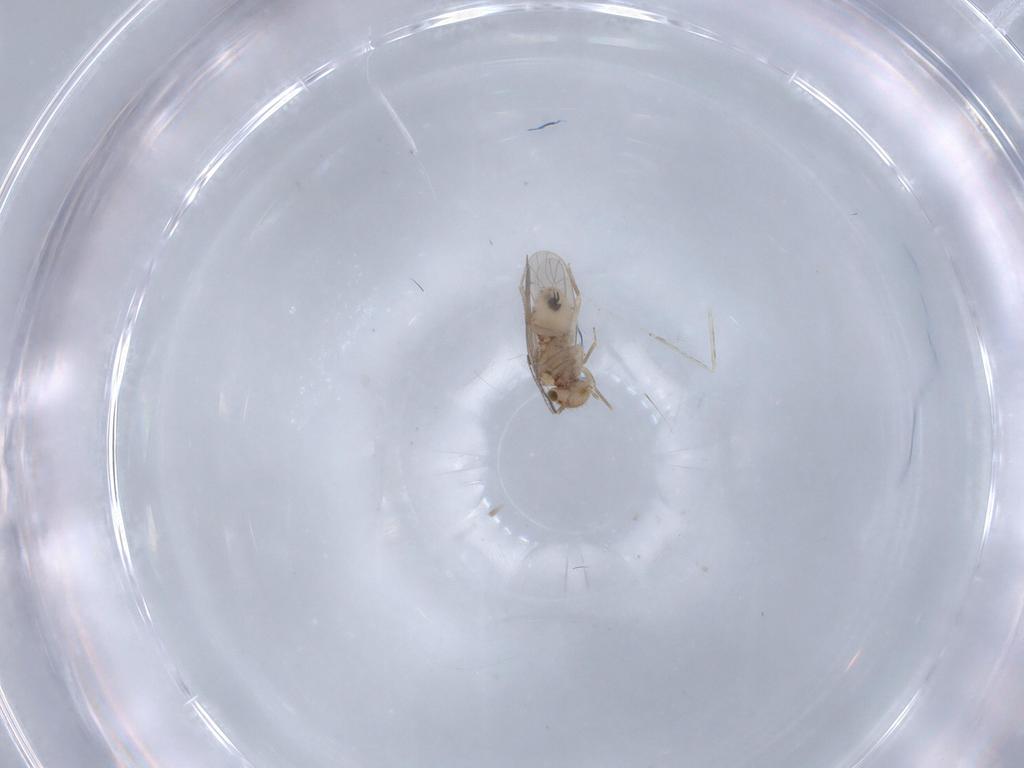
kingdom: Animalia
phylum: Arthropoda
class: Insecta
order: Psocodea
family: Ectopsocidae
